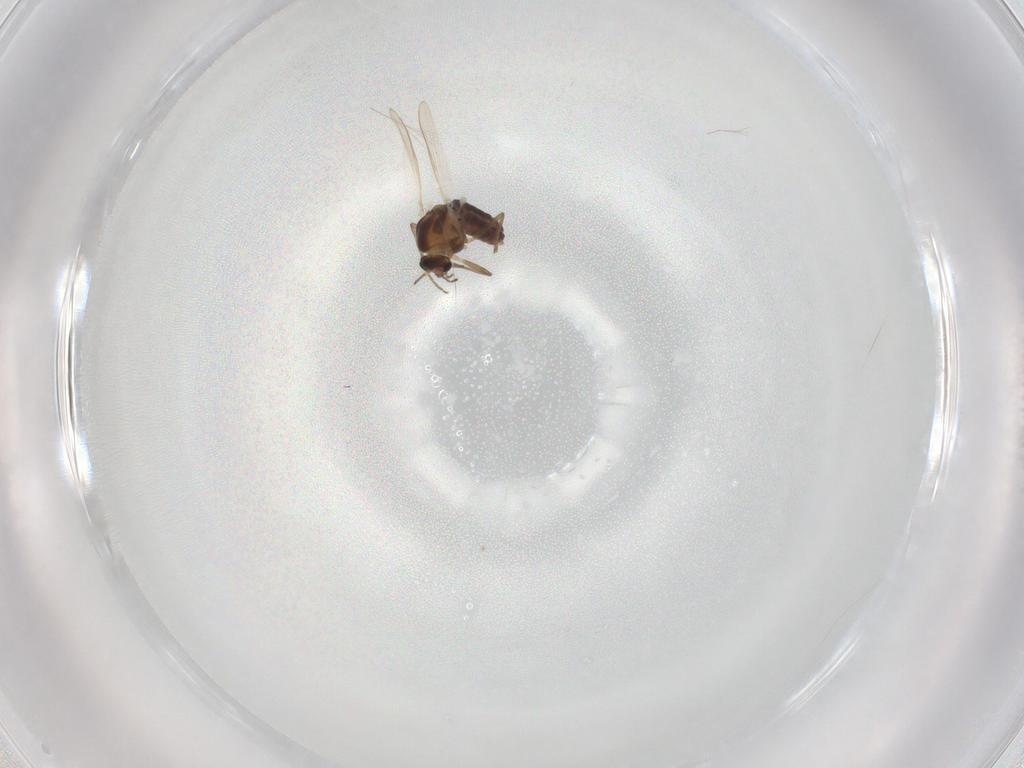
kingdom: Animalia
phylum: Arthropoda
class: Insecta
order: Diptera
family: Chironomidae
